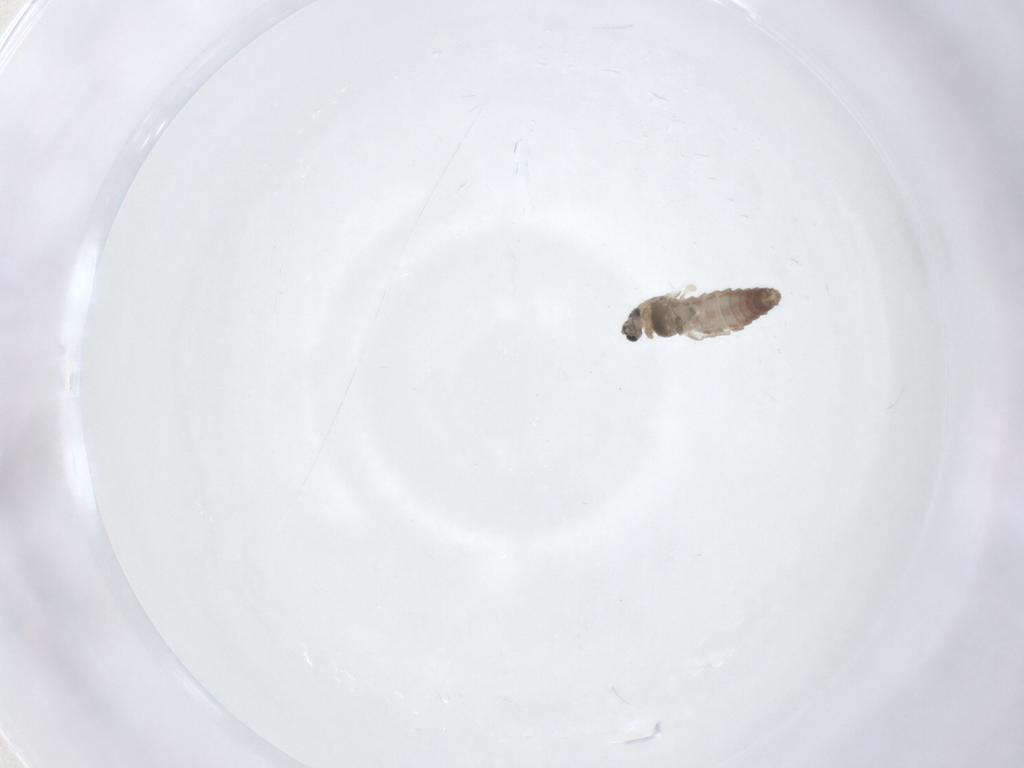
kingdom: Animalia
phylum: Arthropoda
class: Insecta
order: Diptera
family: Chironomidae
